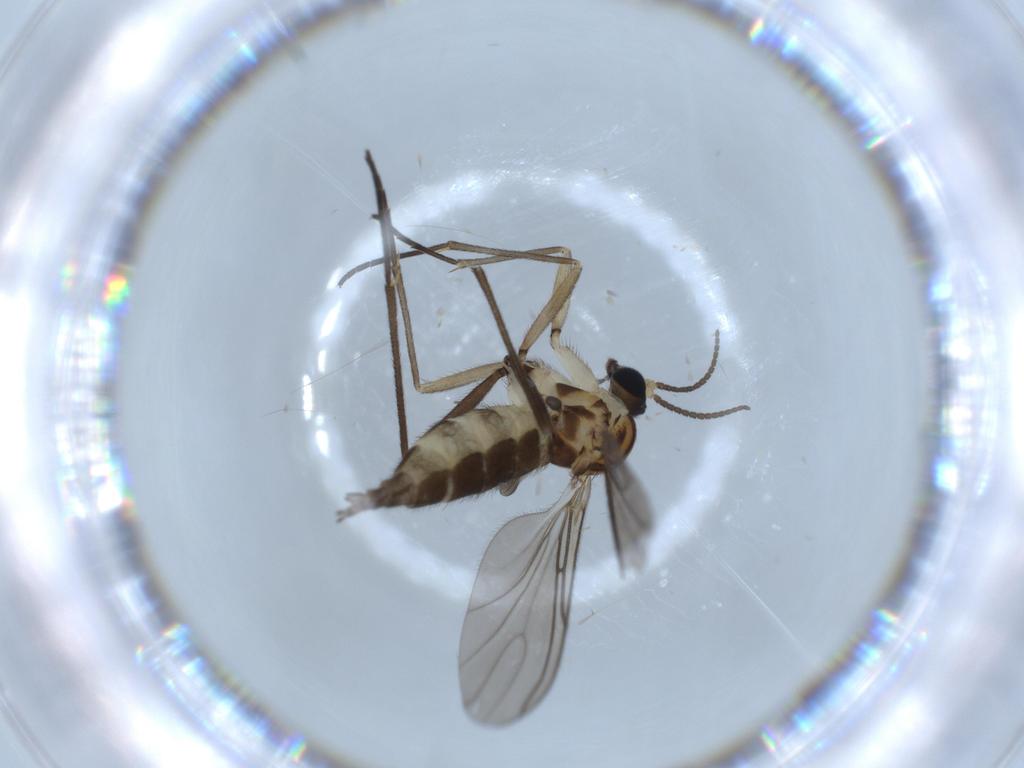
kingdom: Animalia
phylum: Arthropoda
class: Insecta
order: Diptera
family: Sciaridae
